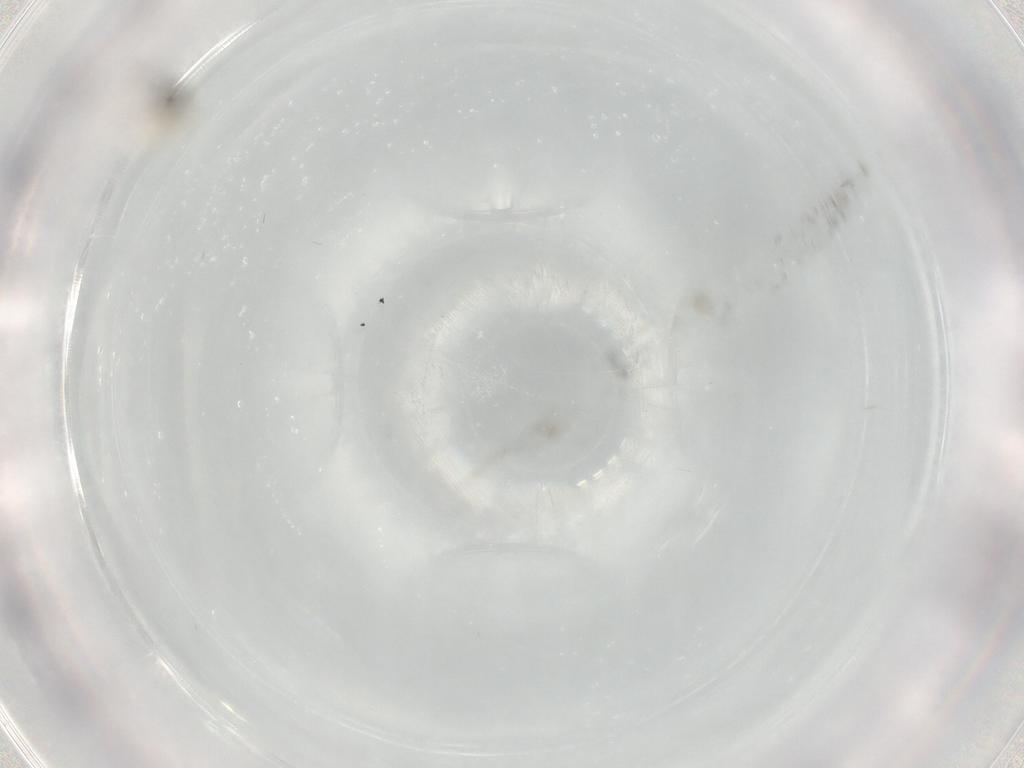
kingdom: Animalia
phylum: Arthropoda
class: Insecta
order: Diptera
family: Cecidomyiidae
